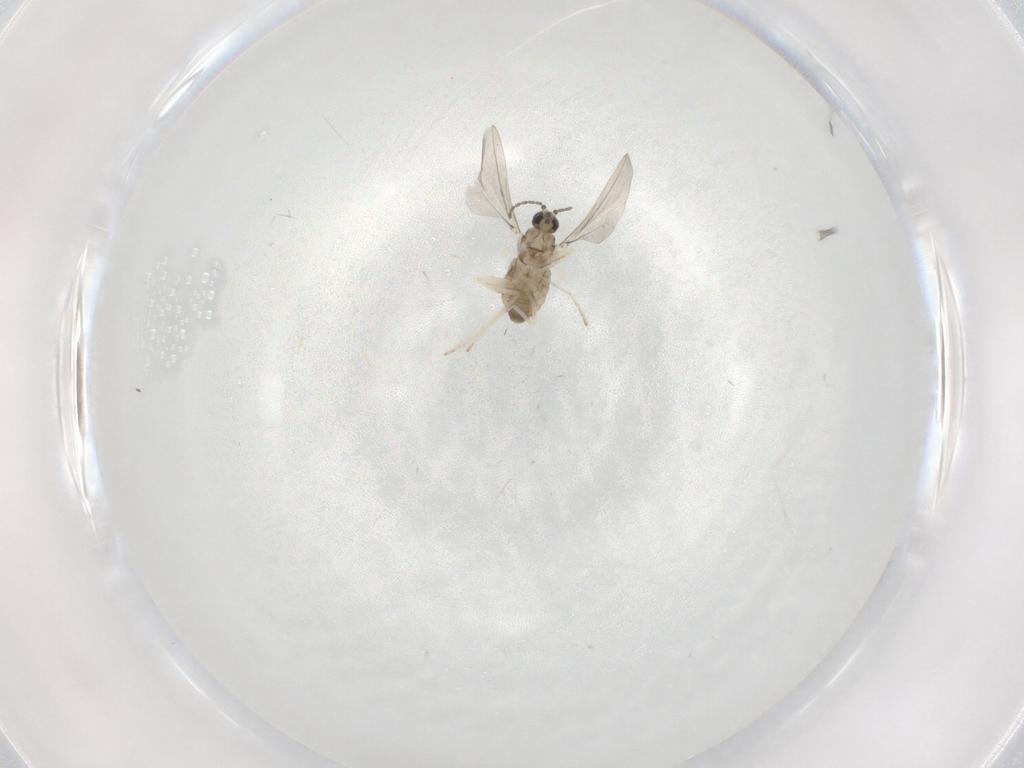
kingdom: Animalia
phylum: Arthropoda
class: Insecta
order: Diptera
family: Cecidomyiidae
